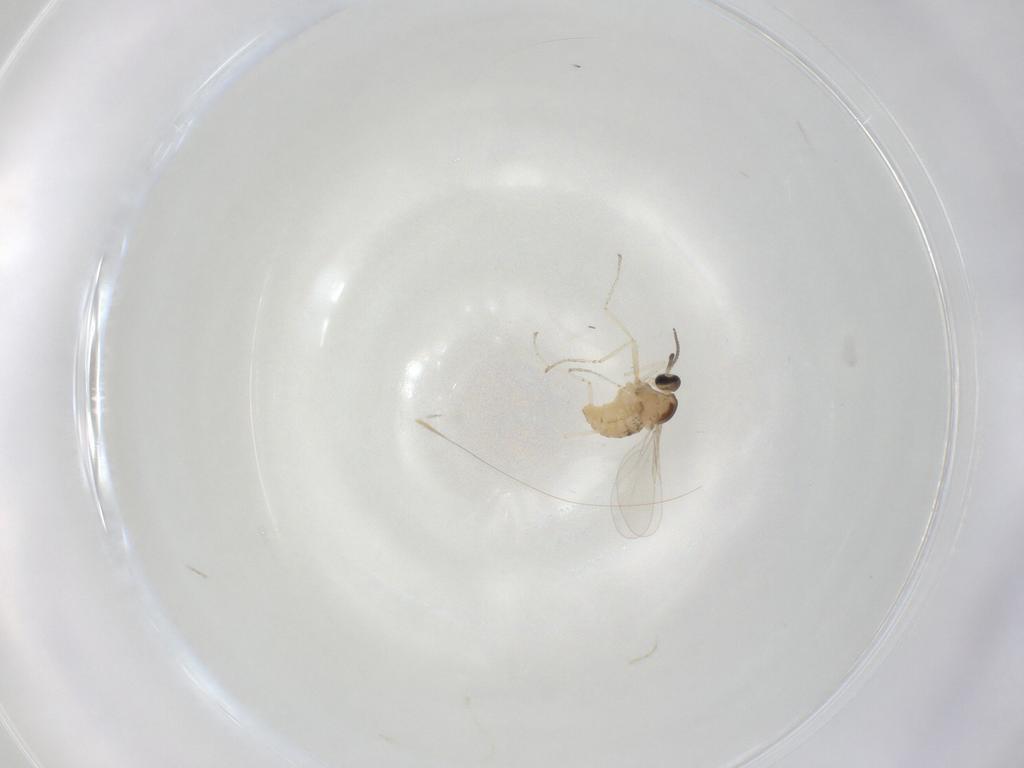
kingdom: Animalia
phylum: Arthropoda
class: Insecta
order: Diptera
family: Cecidomyiidae
